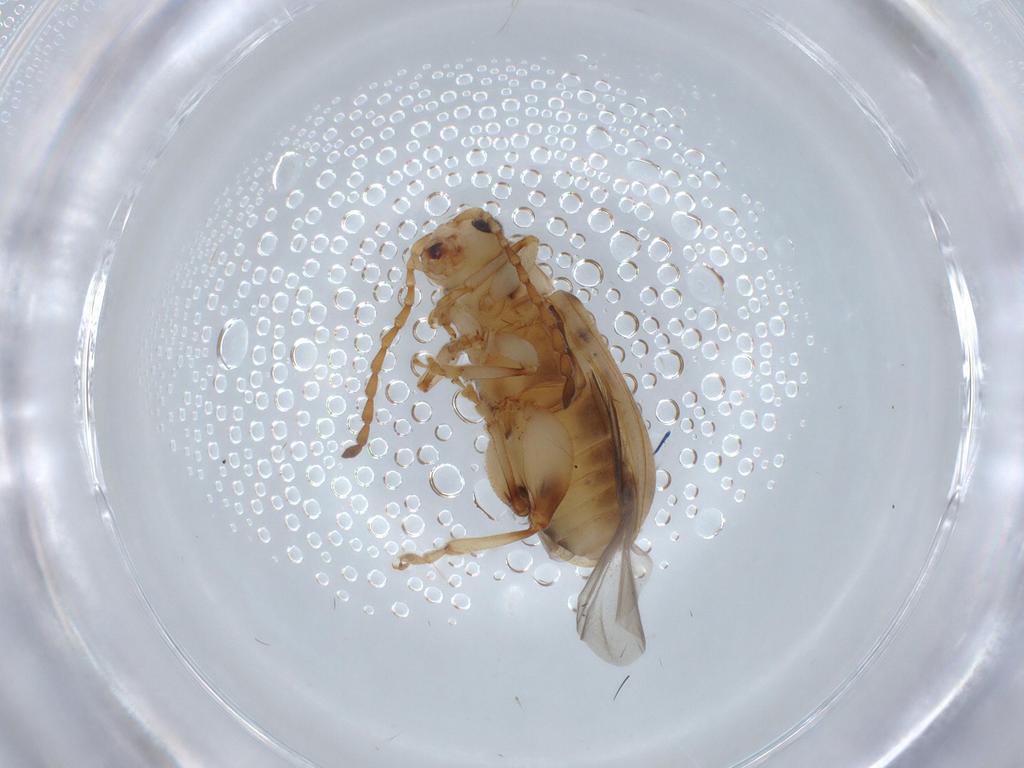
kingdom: Animalia
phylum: Arthropoda
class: Insecta
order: Coleoptera
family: Chrysomelidae
